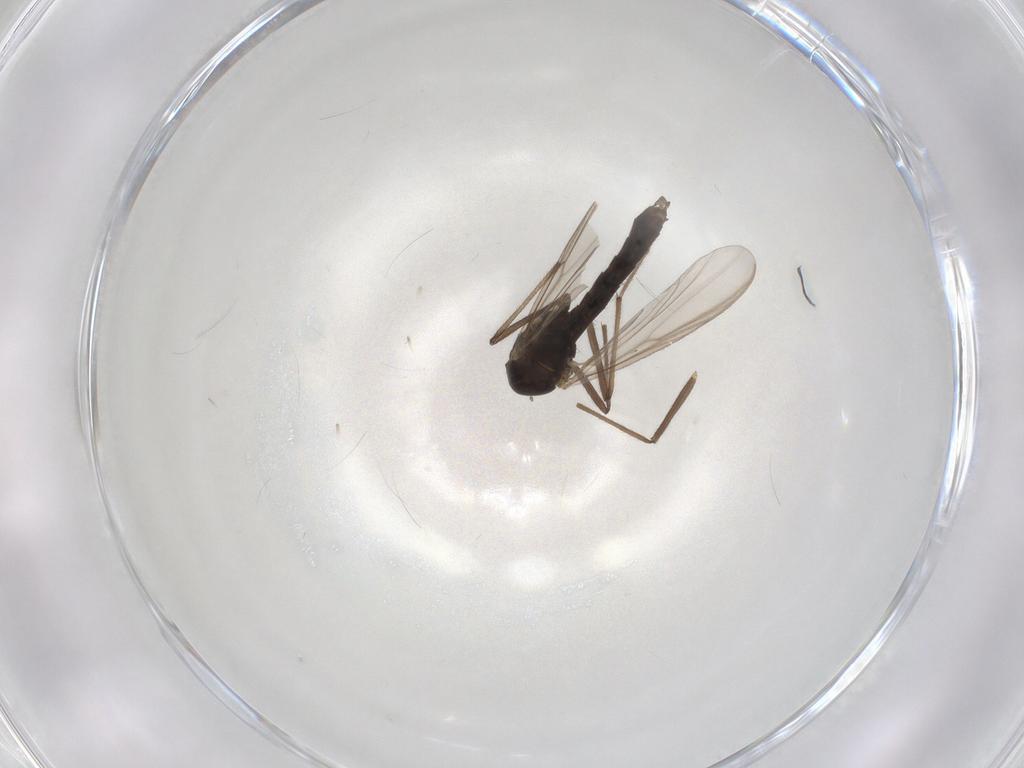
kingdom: Animalia
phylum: Arthropoda
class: Insecta
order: Diptera
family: Chironomidae
